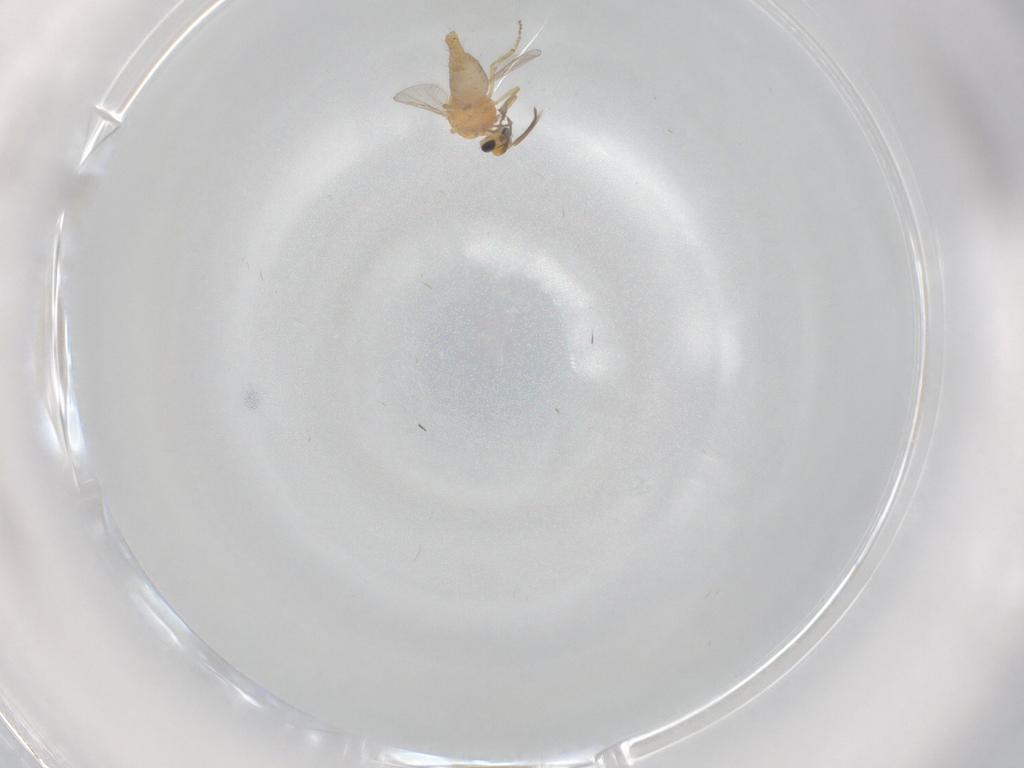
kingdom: Animalia
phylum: Arthropoda
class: Insecta
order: Diptera
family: Ceratopogonidae
